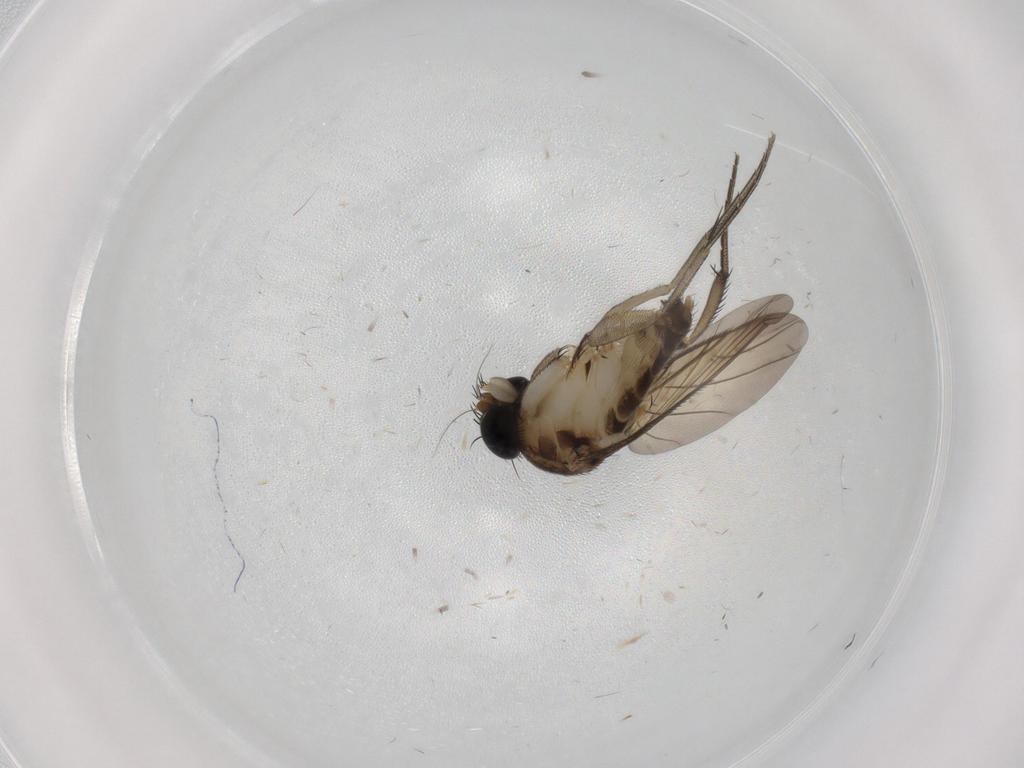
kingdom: Animalia
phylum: Arthropoda
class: Insecta
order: Diptera
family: Phoridae
